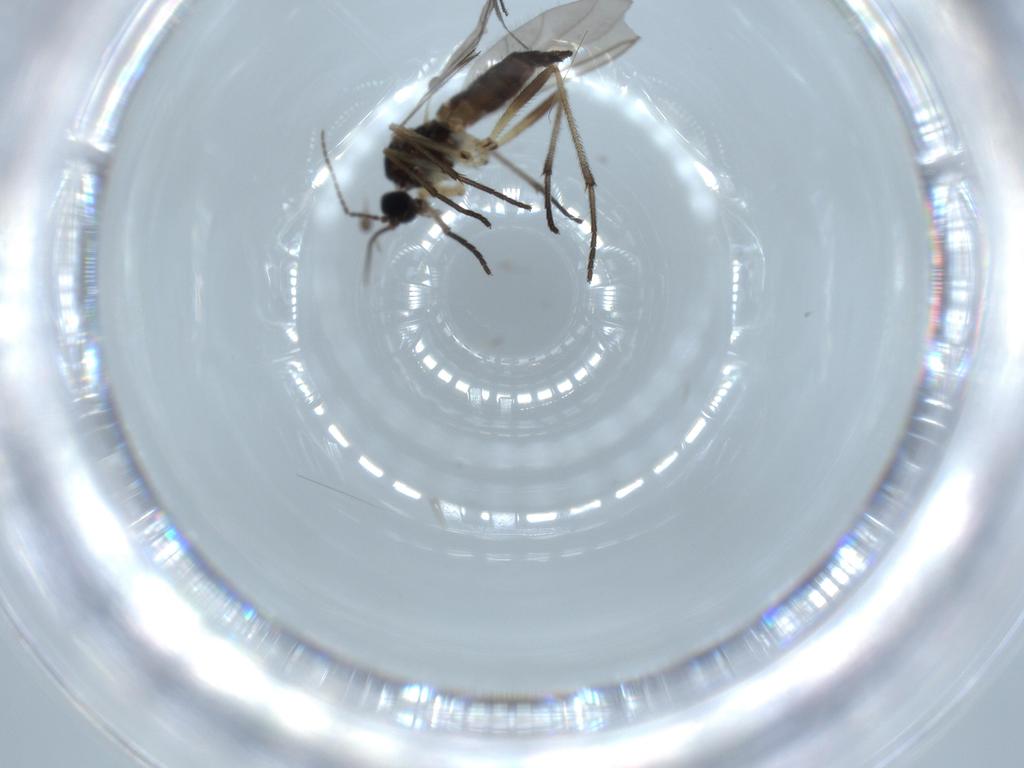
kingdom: Animalia
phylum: Arthropoda
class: Insecta
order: Diptera
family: Sciaridae
